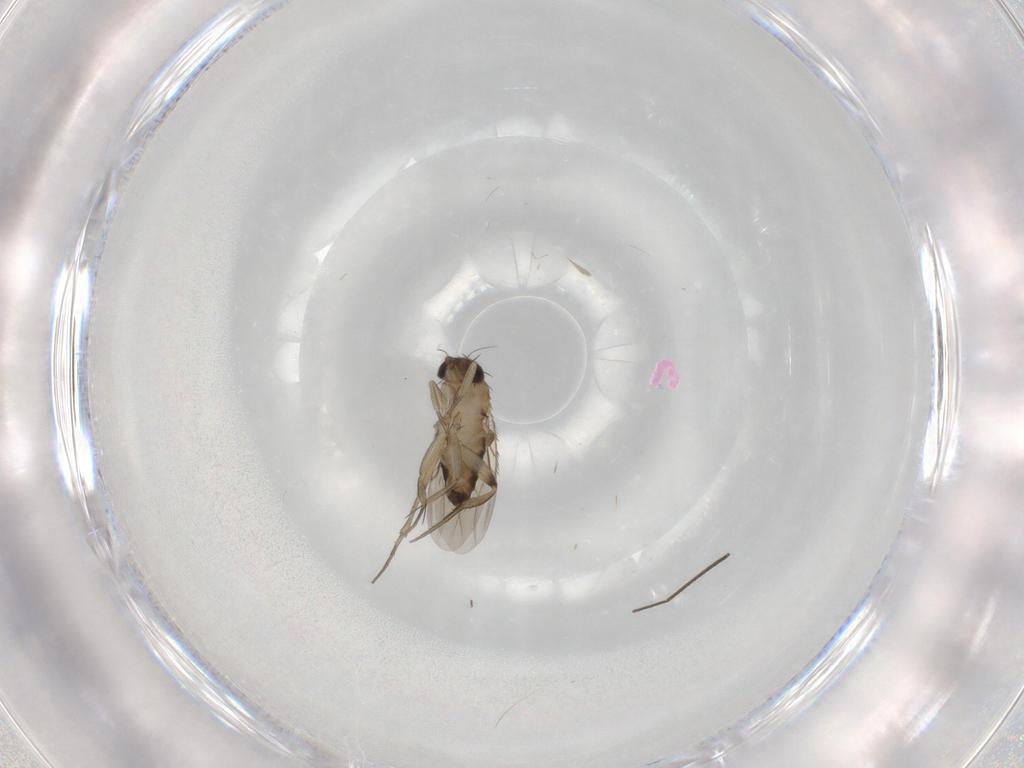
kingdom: Animalia
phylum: Arthropoda
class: Insecta
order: Diptera
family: Phoridae
